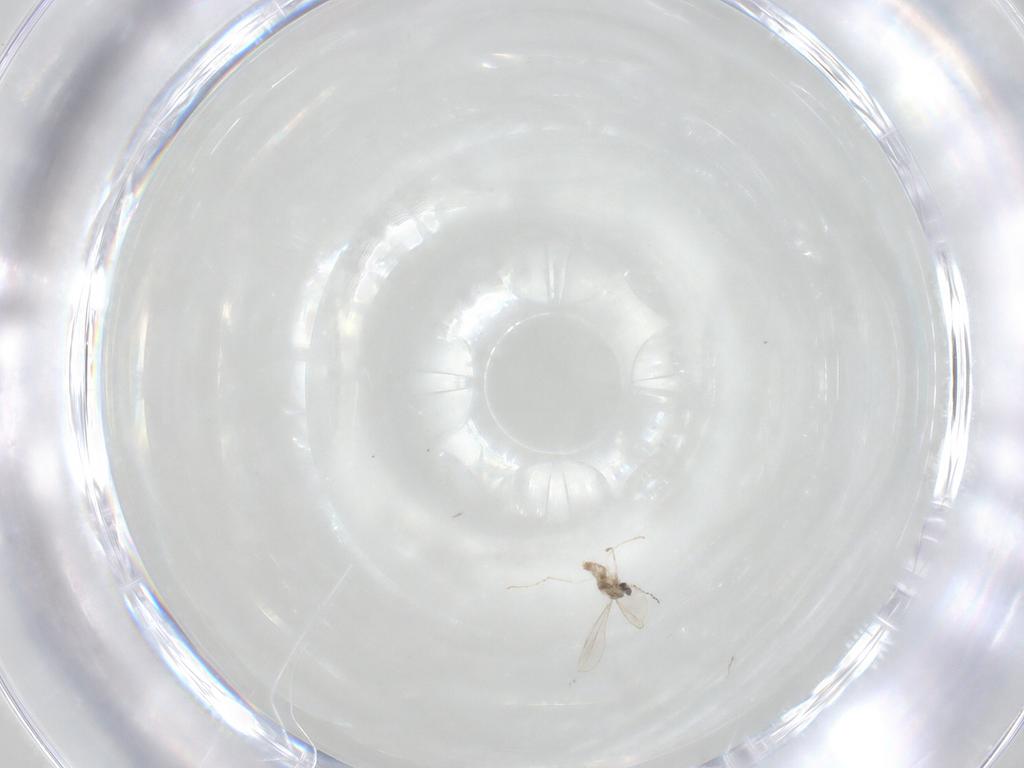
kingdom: Animalia
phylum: Arthropoda
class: Insecta
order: Diptera
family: Cecidomyiidae
